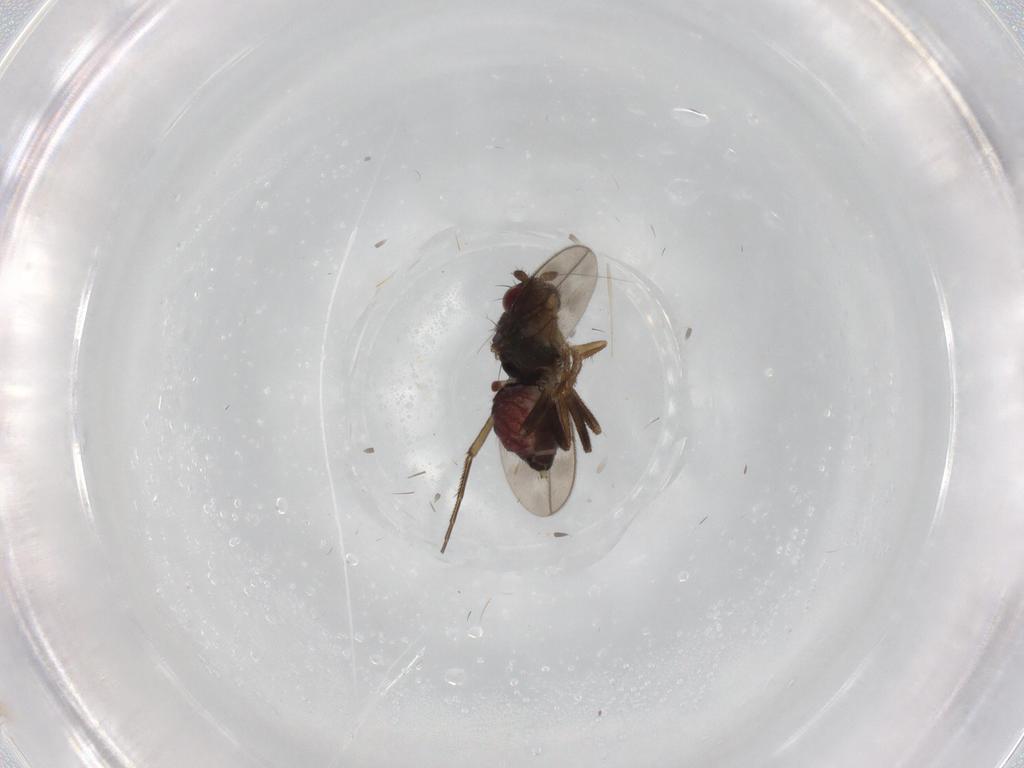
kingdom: Animalia
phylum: Arthropoda
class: Insecta
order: Diptera
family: Sphaeroceridae
